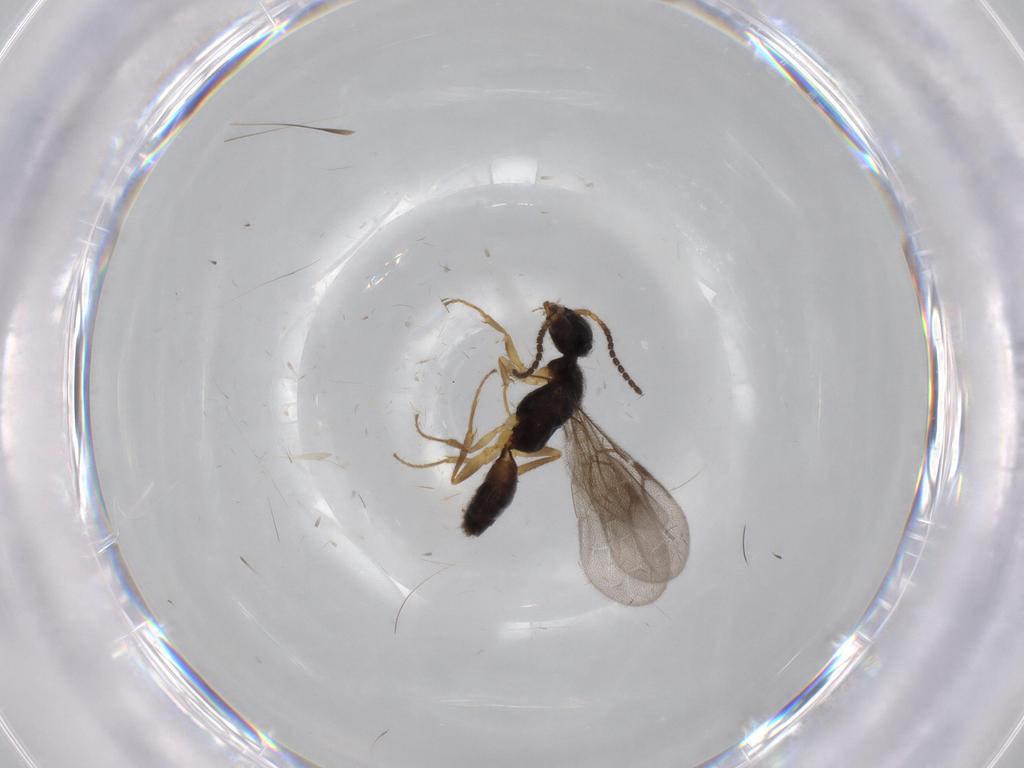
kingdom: Animalia
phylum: Arthropoda
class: Insecta
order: Hymenoptera
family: Bethylidae
